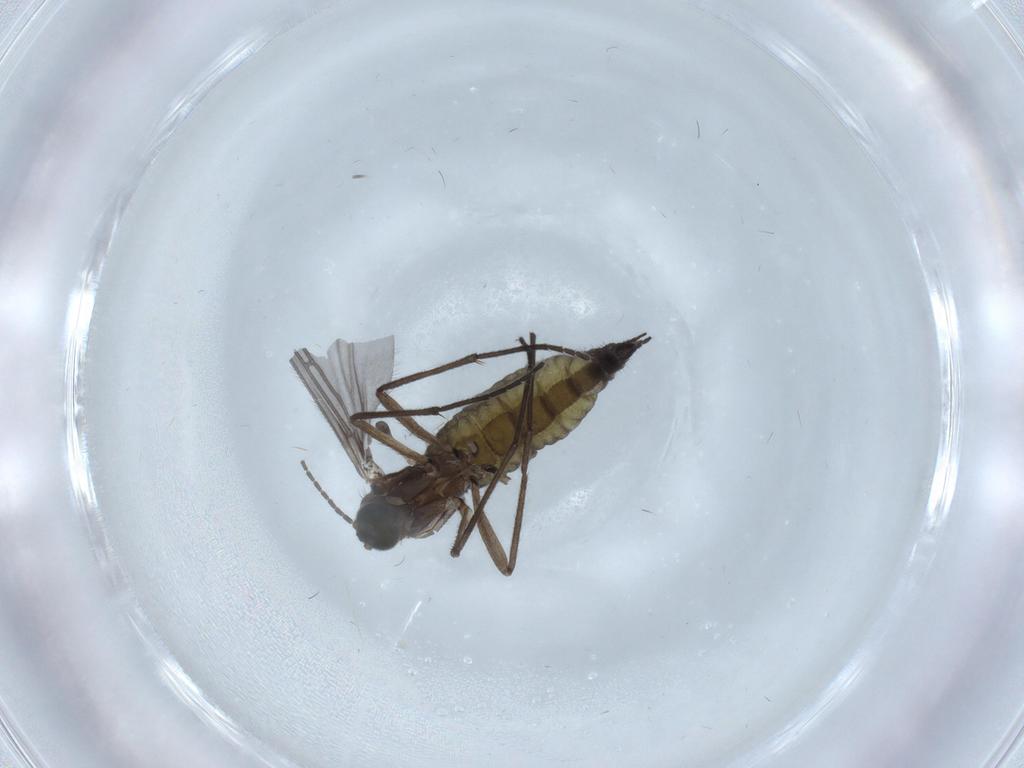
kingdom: Animalia
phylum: Arthropoda
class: Insecta
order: Diptera
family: Sciaridae
